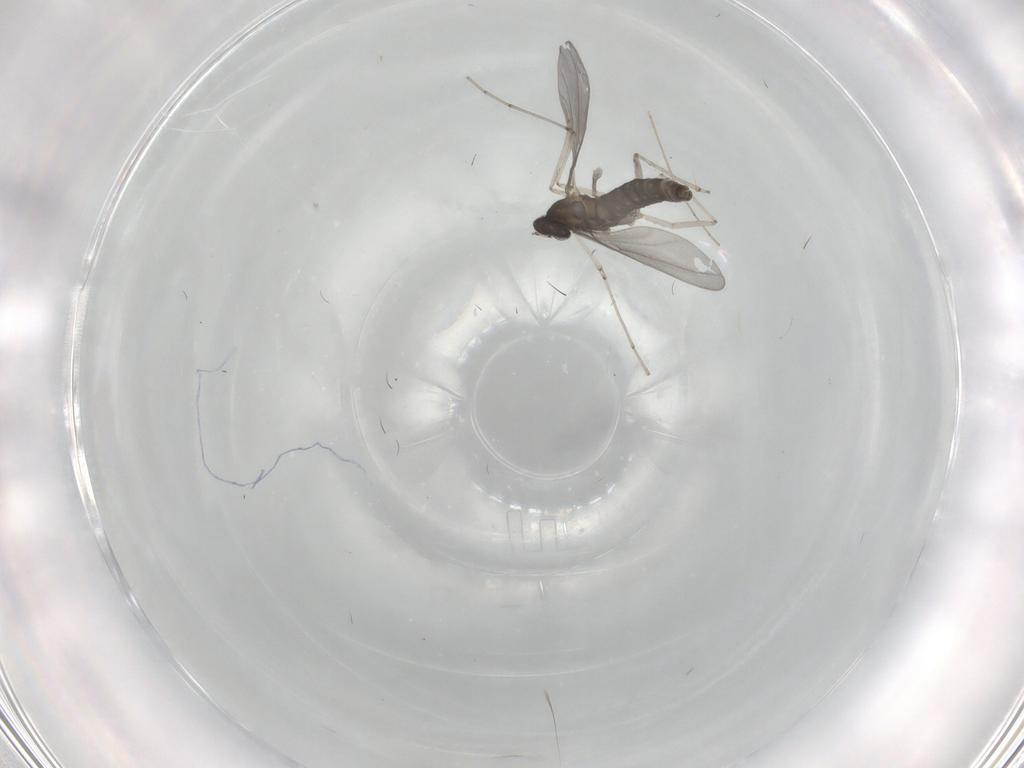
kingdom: Animalia
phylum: Arthropoda
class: Insecta
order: Diptera
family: Cecidomyiidae
